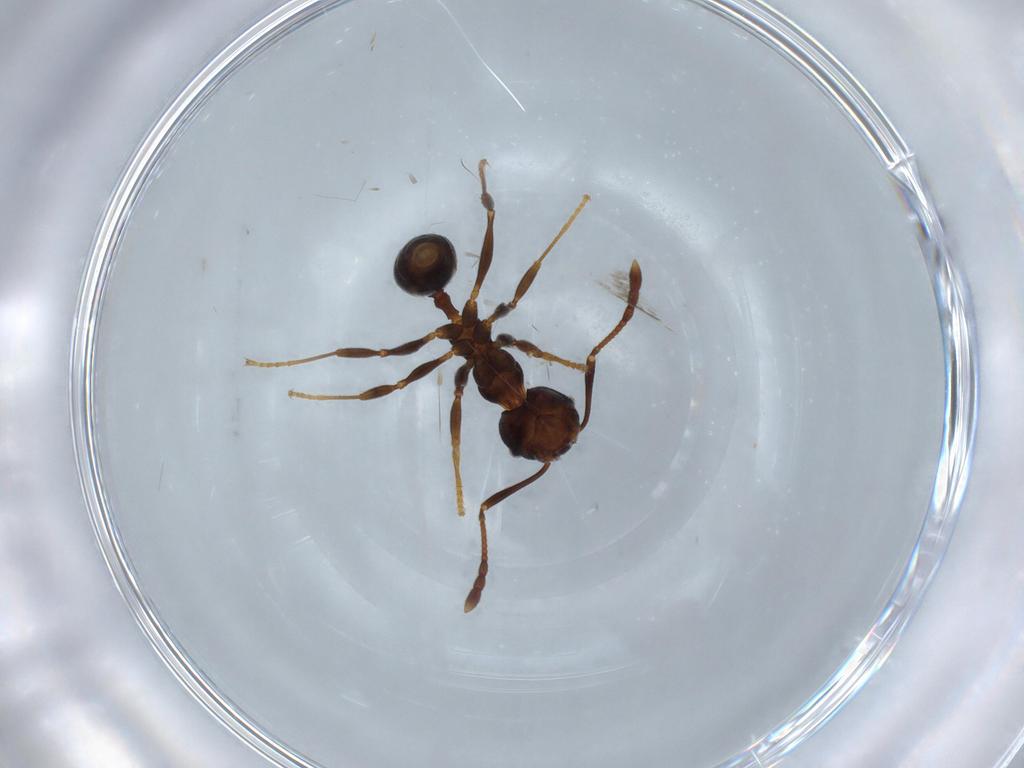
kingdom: Animalia
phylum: Arthropoda
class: Insecta
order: Hymenoptera
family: Formicidae
